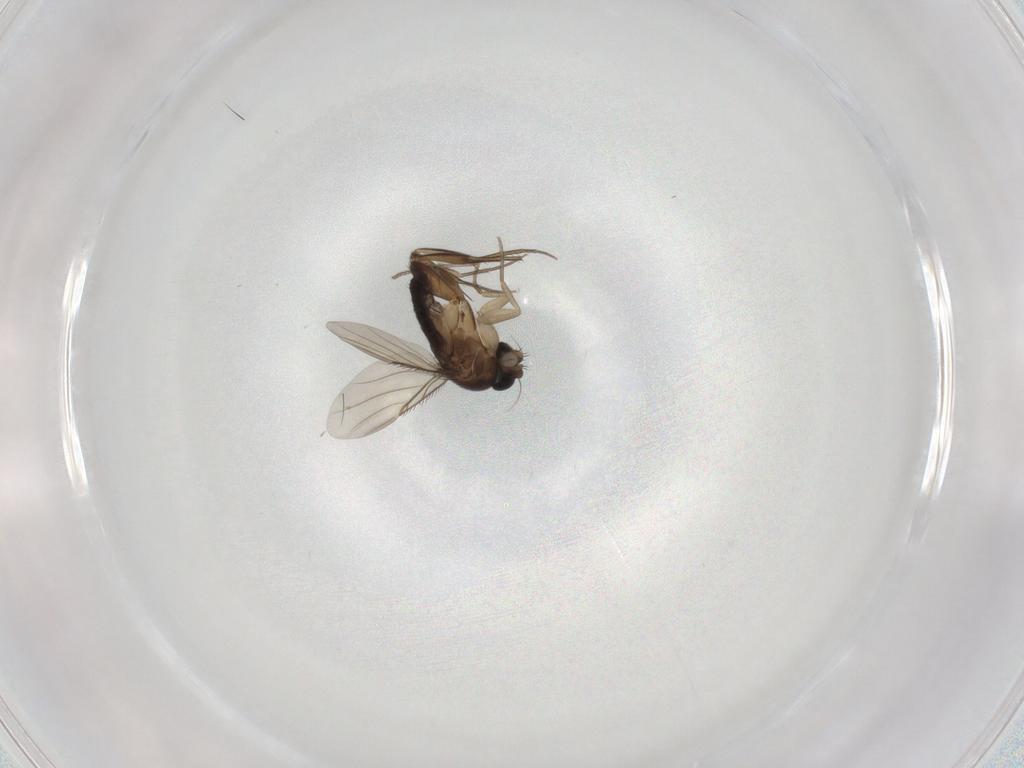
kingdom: Animalia
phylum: Arthropoda
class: Insecta
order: Diptera
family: Phoridae
